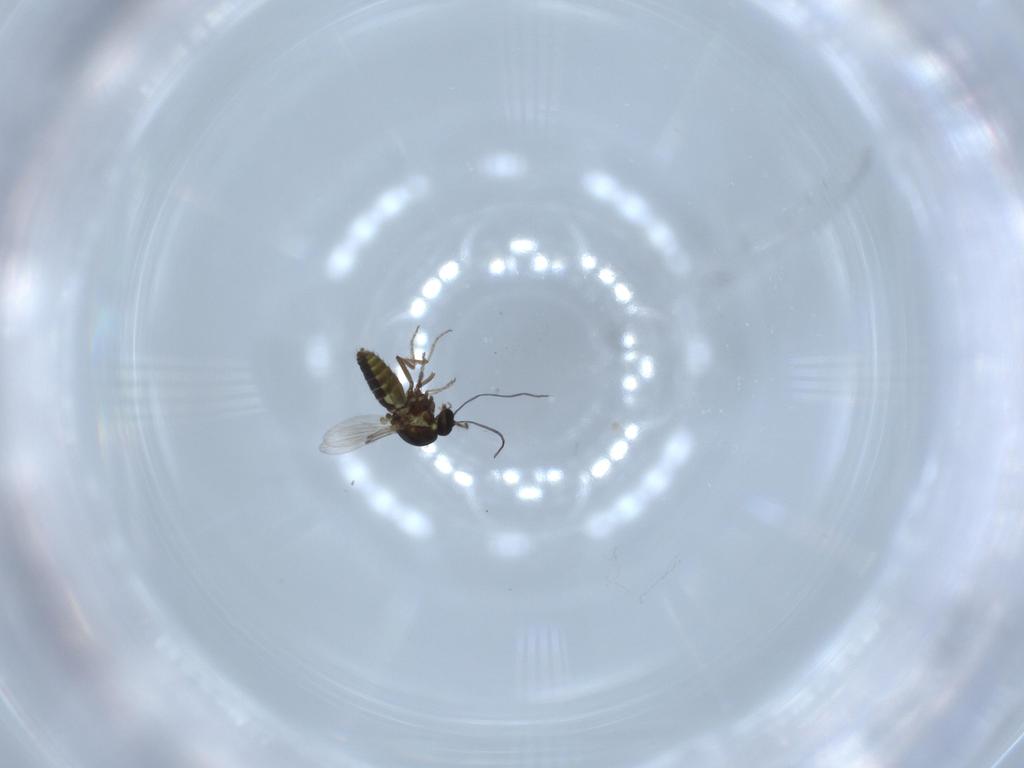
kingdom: Animalia
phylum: Arthropoda
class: Insecta
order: Diptera
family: Ceratopogonidae
